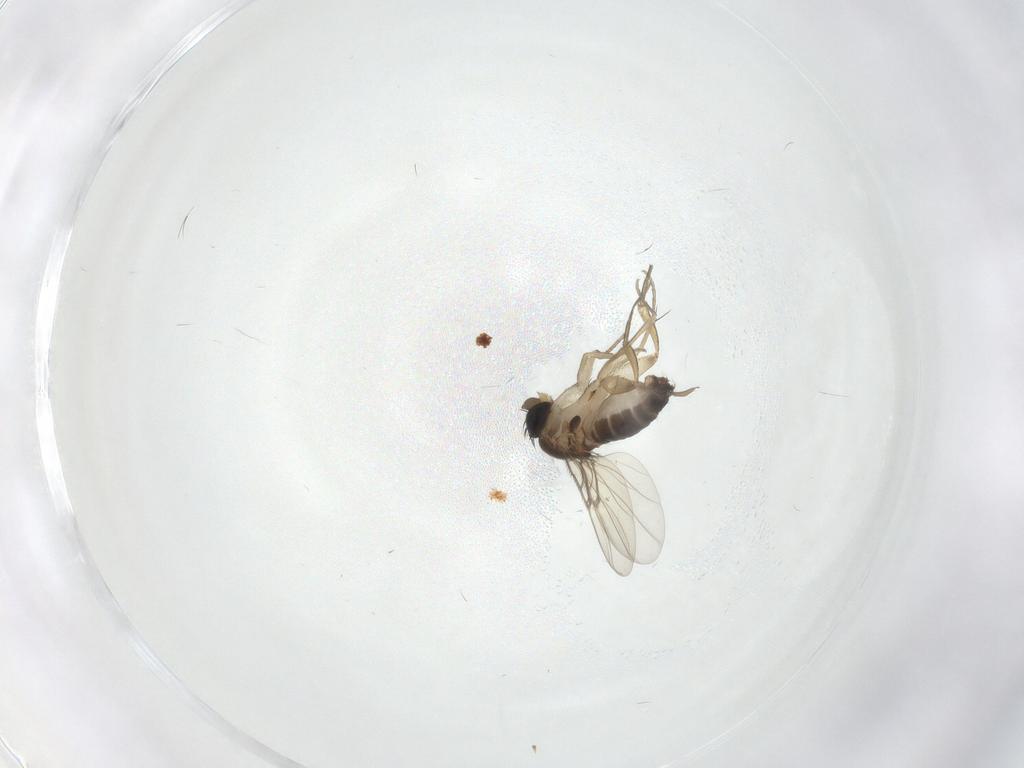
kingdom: Animalia
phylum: Arthropoda
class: Insecta
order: Diptera
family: Chironomidae
